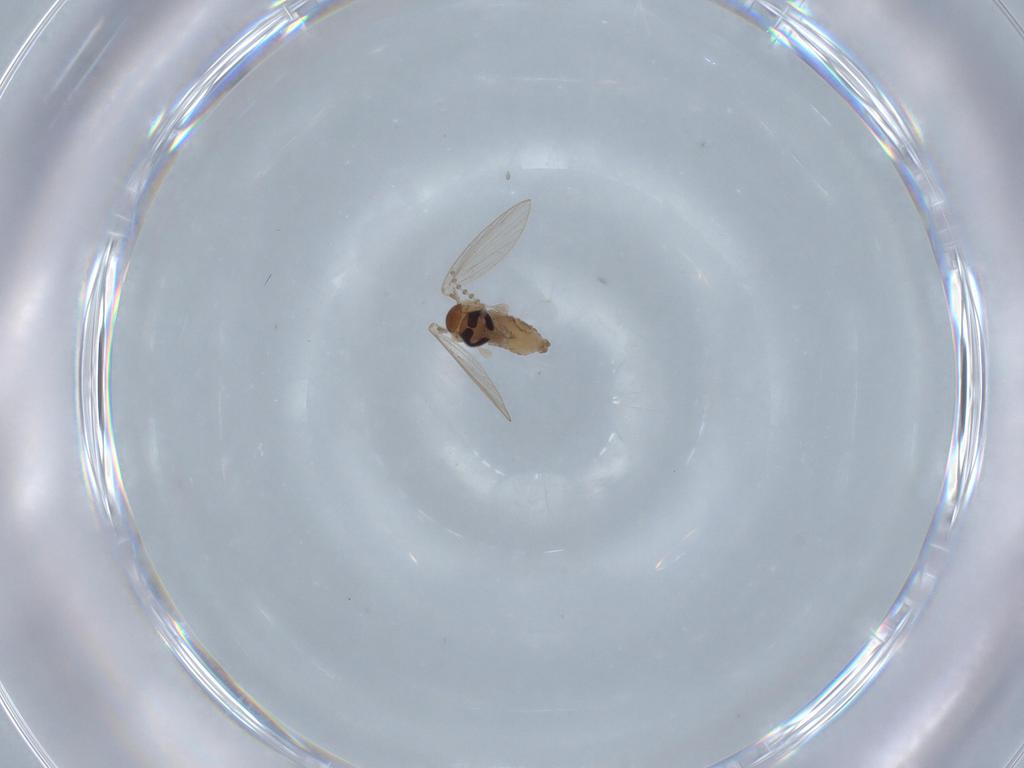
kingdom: Animalia
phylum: Arthropoda
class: Insecta
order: Diptera
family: Psychodidae
